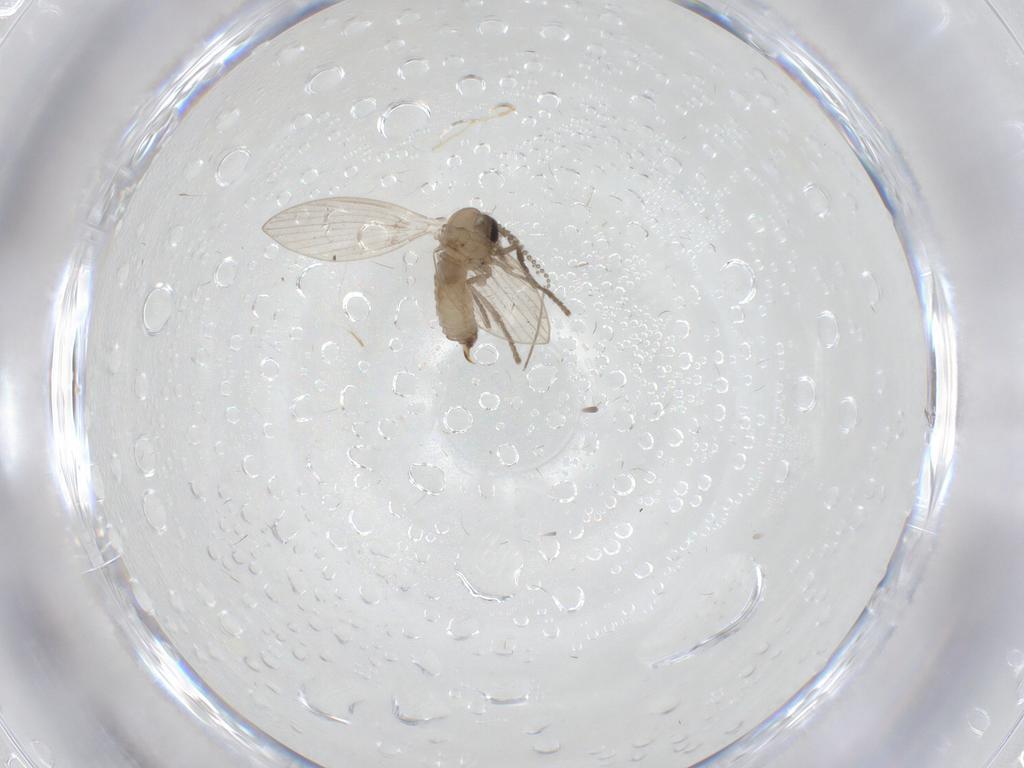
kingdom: Animalia
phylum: Arthropoda
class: Insecta
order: Diptera
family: Psychodidae
